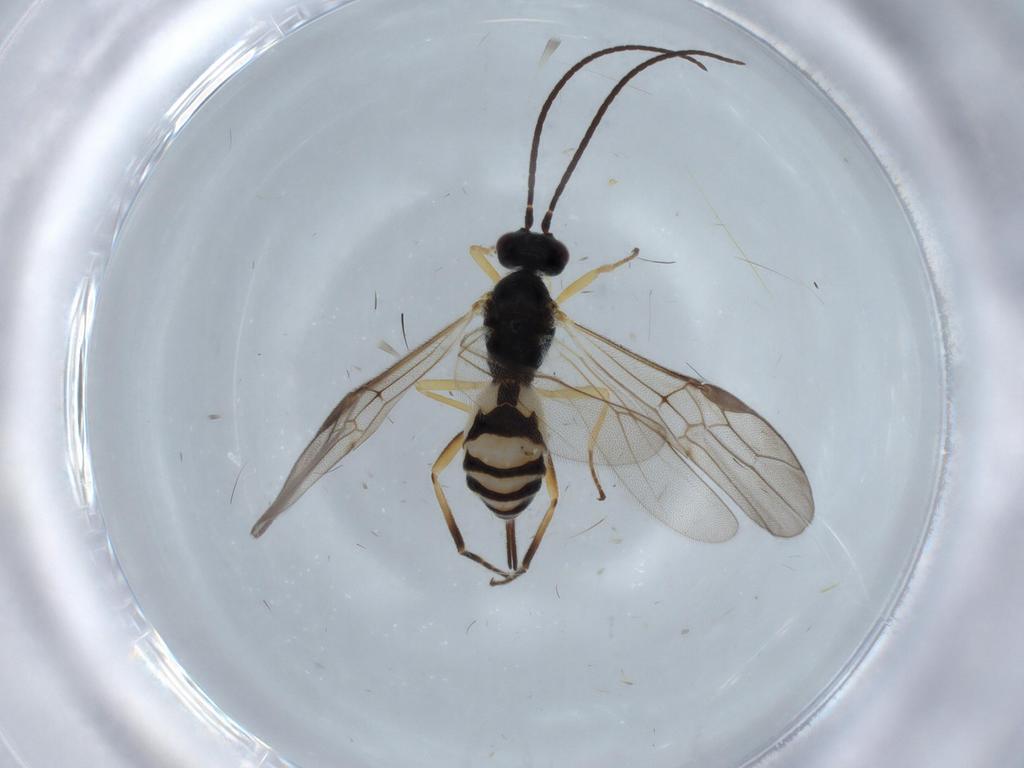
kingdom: Animalia
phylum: Arthropoda
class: Insecta
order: Hymenoptera
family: Braconidae
